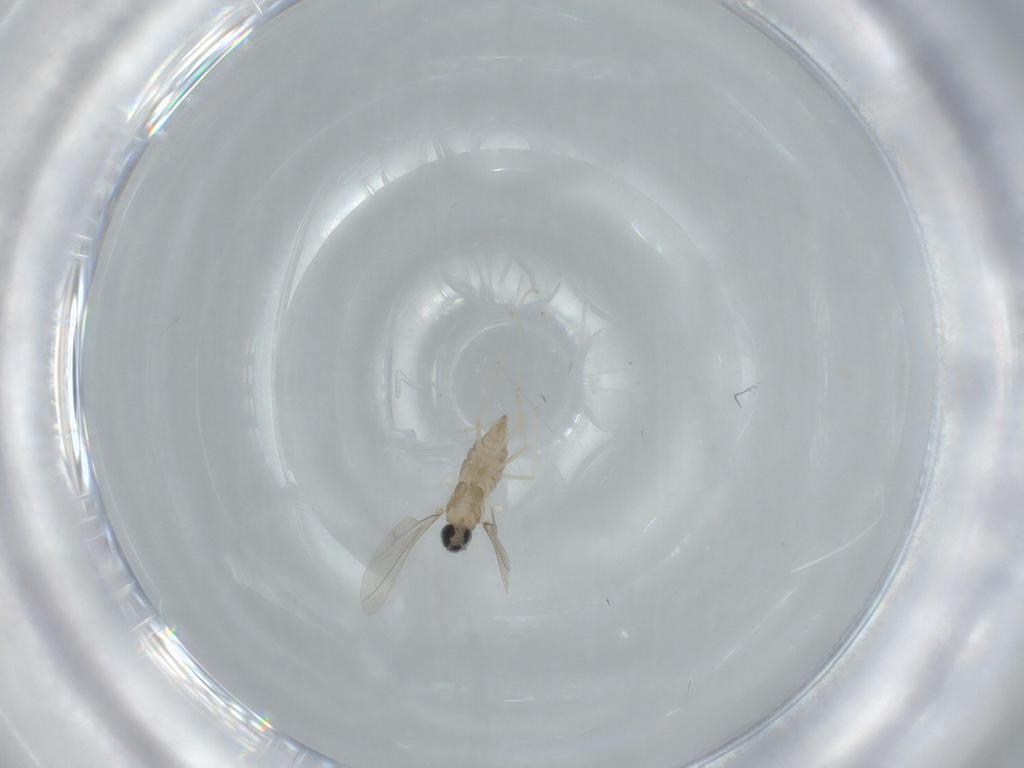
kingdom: Animalia
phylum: Arthropoda
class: Insecta
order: Diptera
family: Cecidomyiidae
